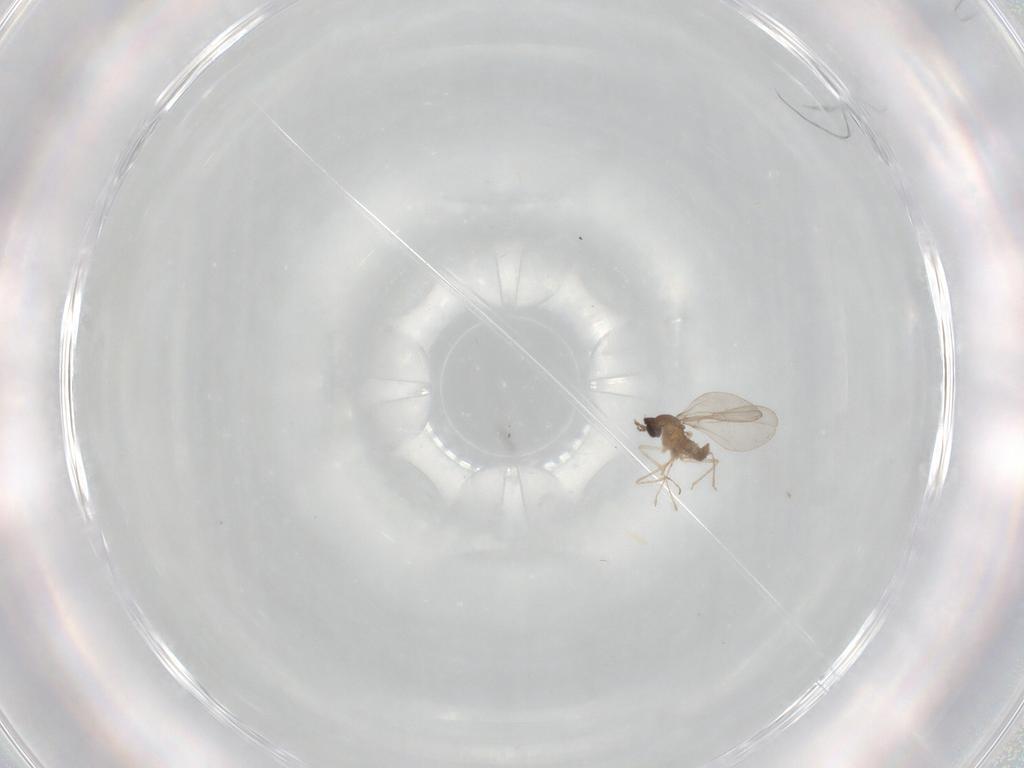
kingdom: Animalia
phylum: Arthropoda
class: Insecta
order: Diptera
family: Cecidomyiidae
